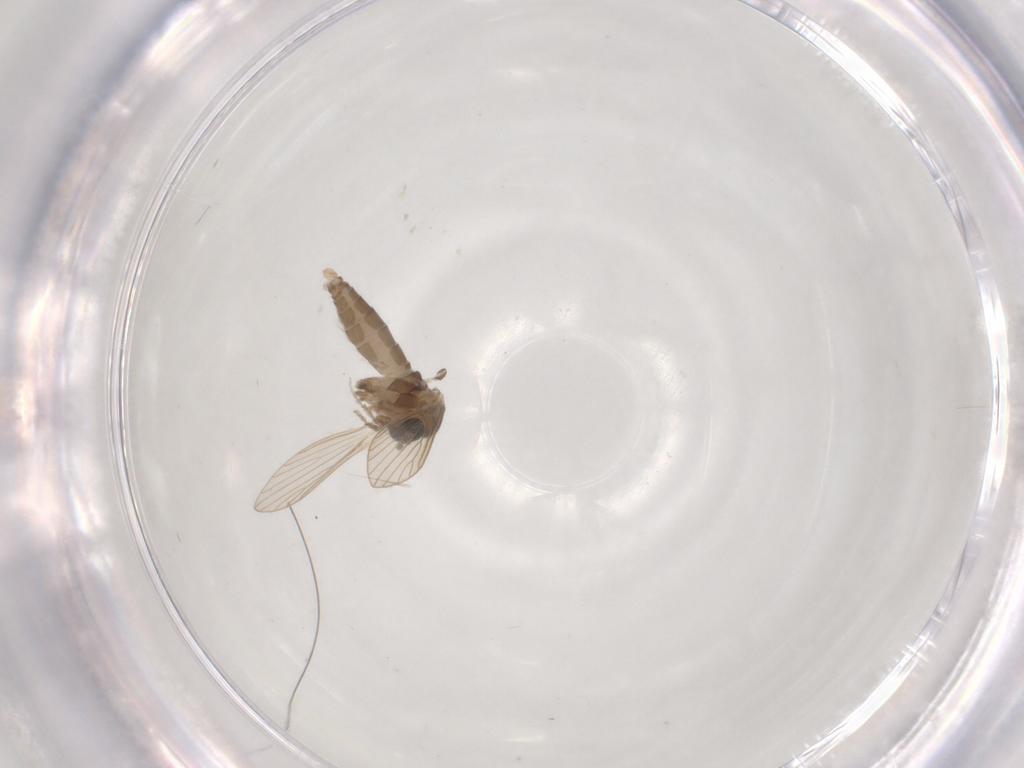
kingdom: Animalia
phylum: Arthropoda
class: Insecta
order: Diptera
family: Psychodidae
